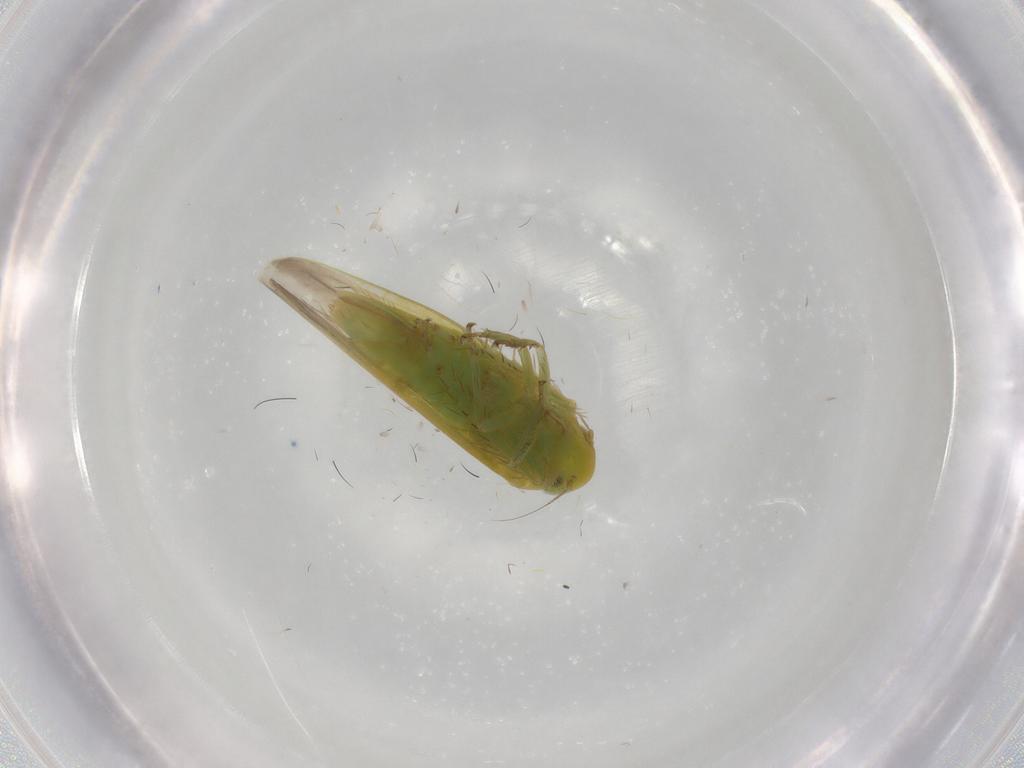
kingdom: Animalia
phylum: Arthropoda
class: Insecta
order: Hemiptera
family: Cicadellidae
